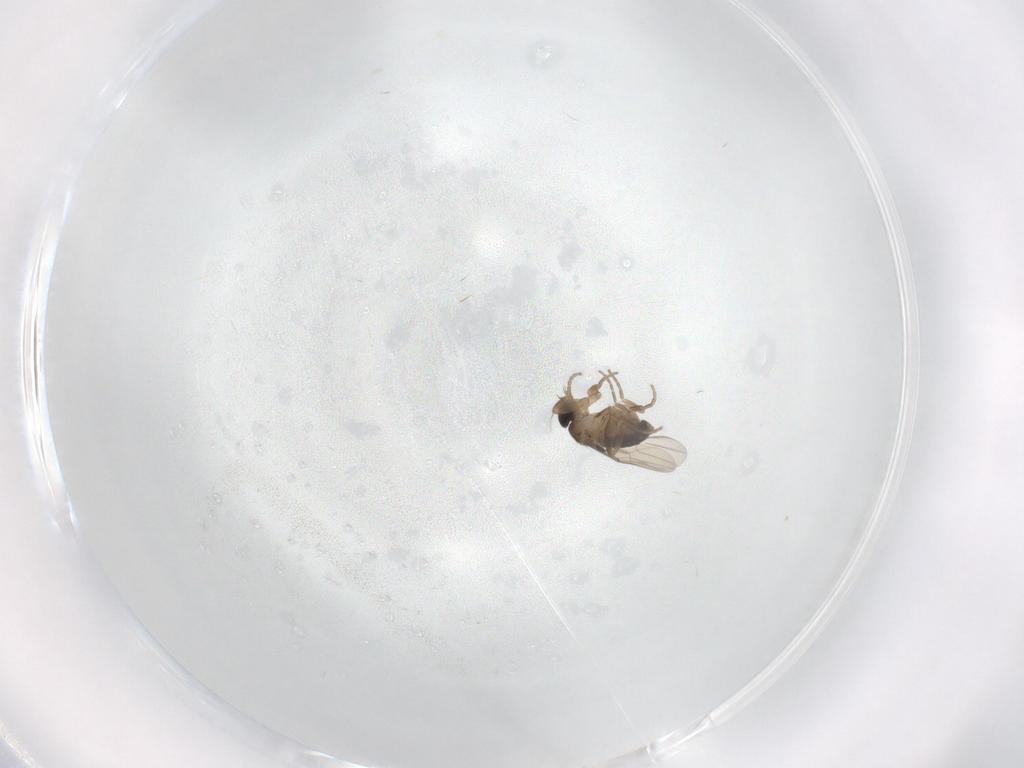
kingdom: Animalia
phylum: Arthropoda
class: Insecta
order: Diptera
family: Phoridae
